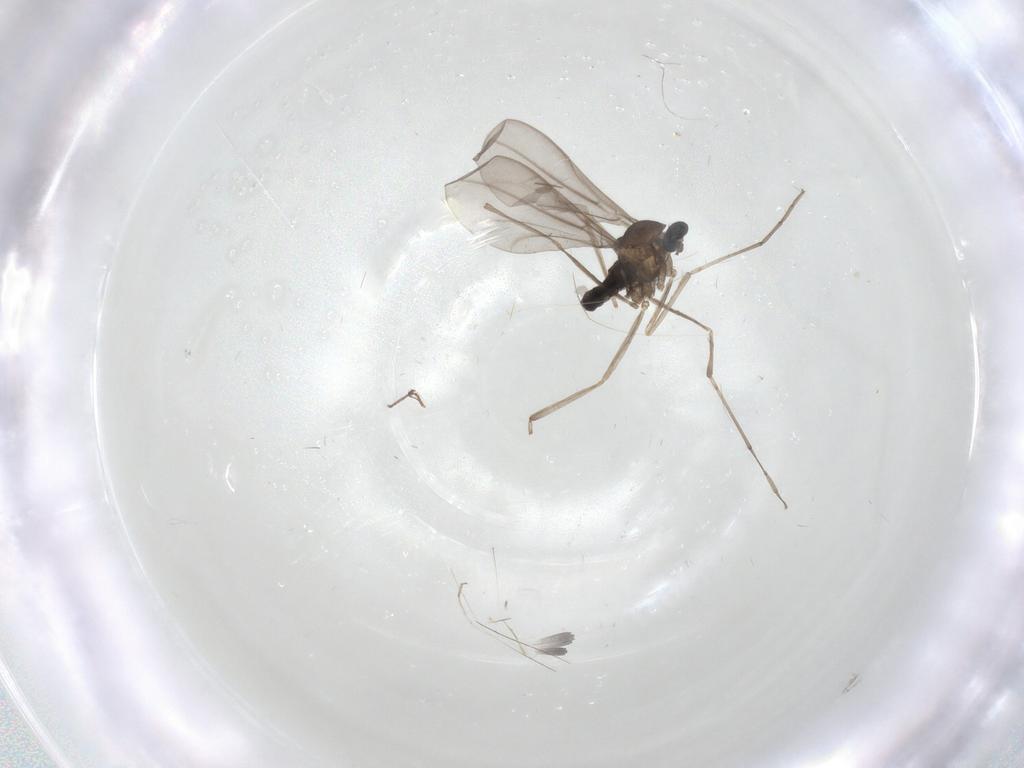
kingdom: Animalia
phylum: Arthropoda
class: Insecta
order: Diptera
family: Cecidomyiidae
